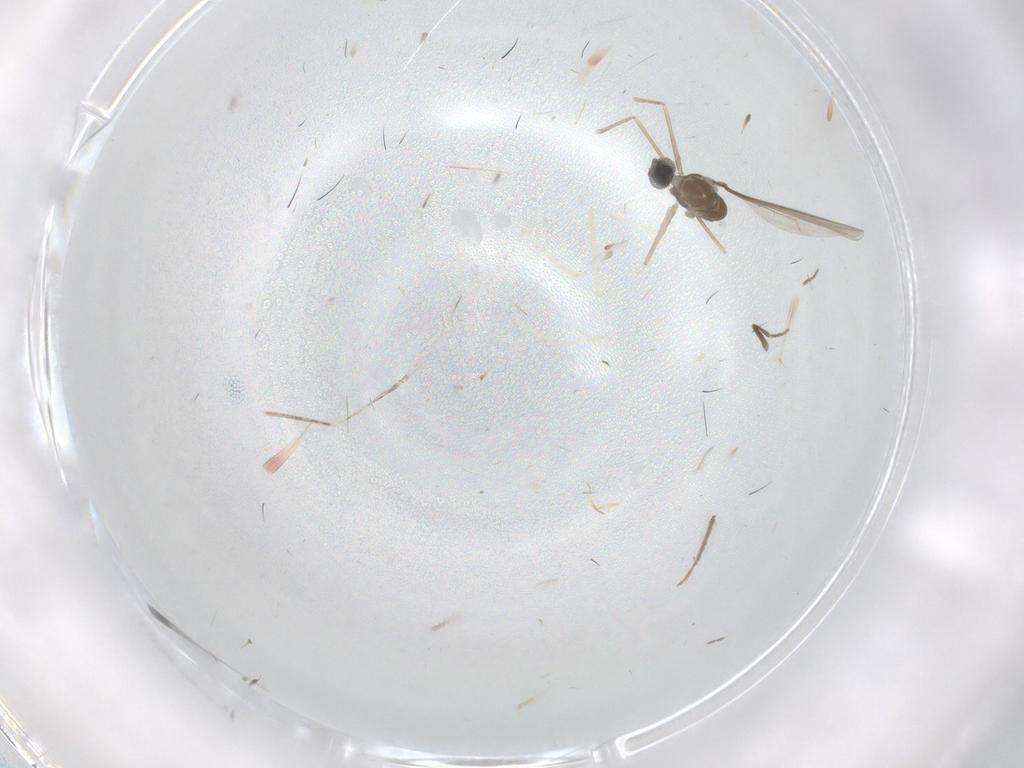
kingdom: Animalia
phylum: Arthropoda
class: Insecta
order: Diptera
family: Cecidomyiidae
